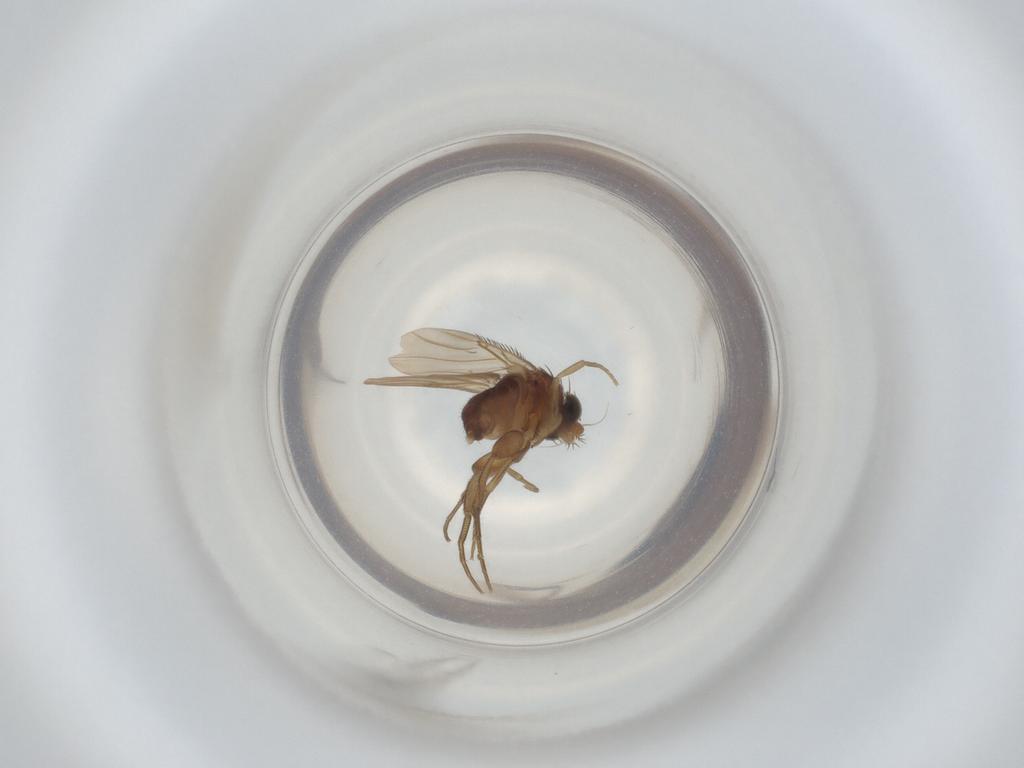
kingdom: Animalia
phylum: Arthropoda
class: Insecta
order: Diptera
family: Phoridae
